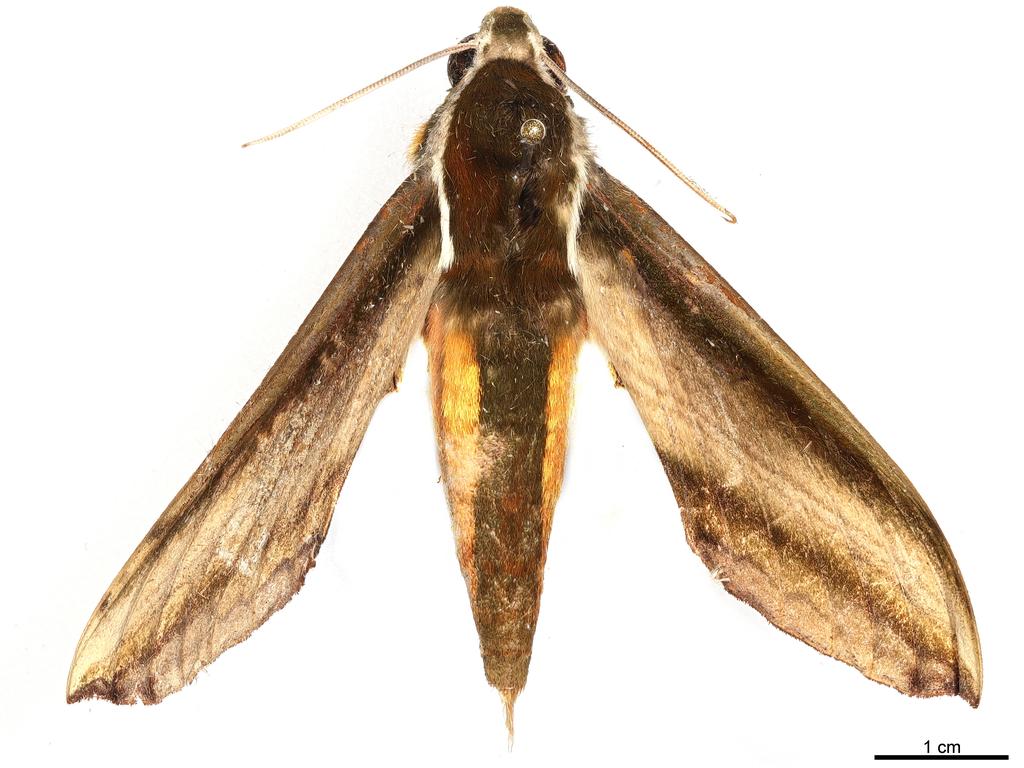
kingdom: Animalia
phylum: Arthropoda
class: Insecta
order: Lepidoptera
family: Sphingidae
